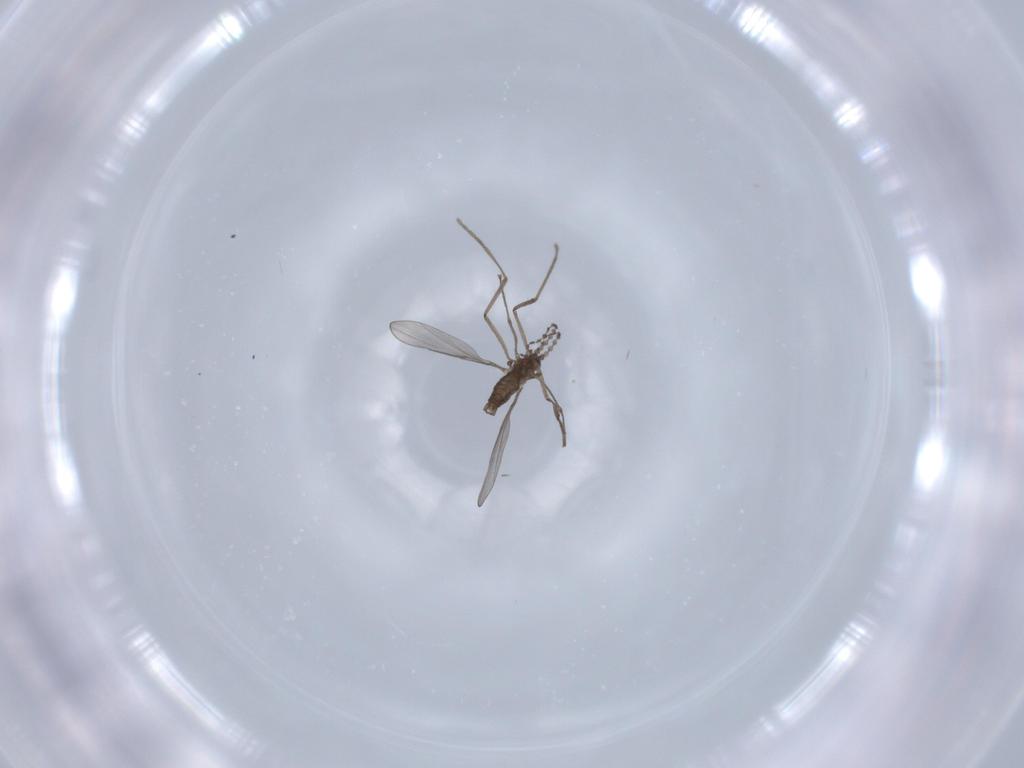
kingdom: Animalia
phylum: Arthropoda
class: Insecta
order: Diptera
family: Cecidomyiidae
